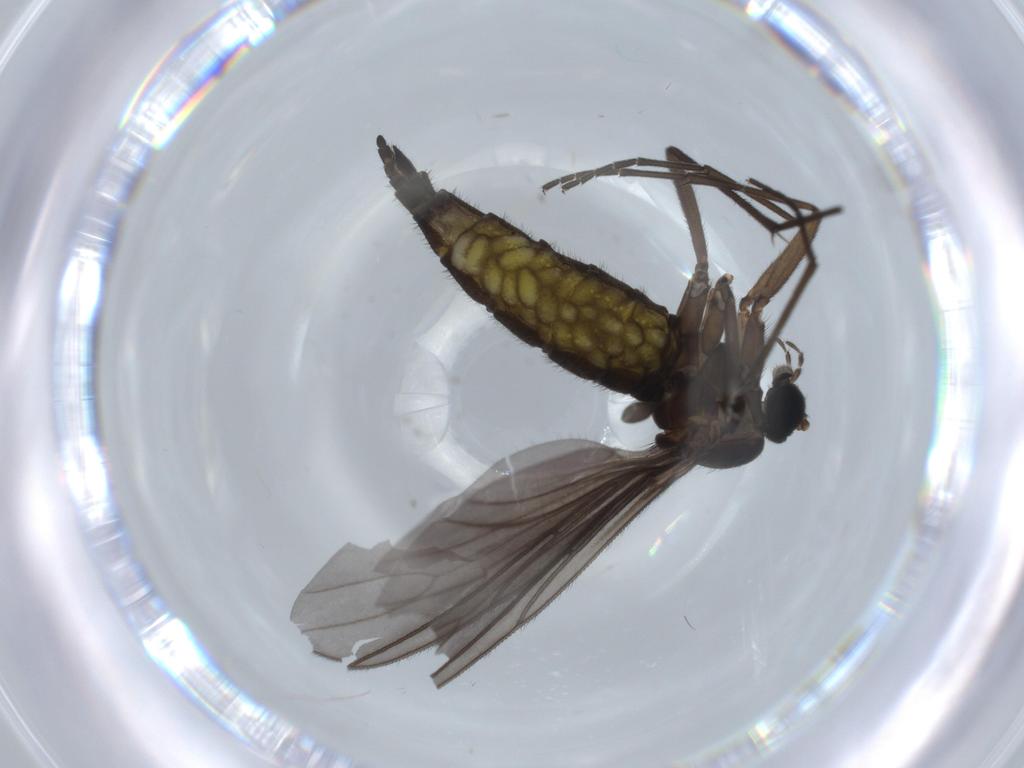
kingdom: Animalia
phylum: Arthropoda
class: Insecta
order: Diptera
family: Sciaridae
